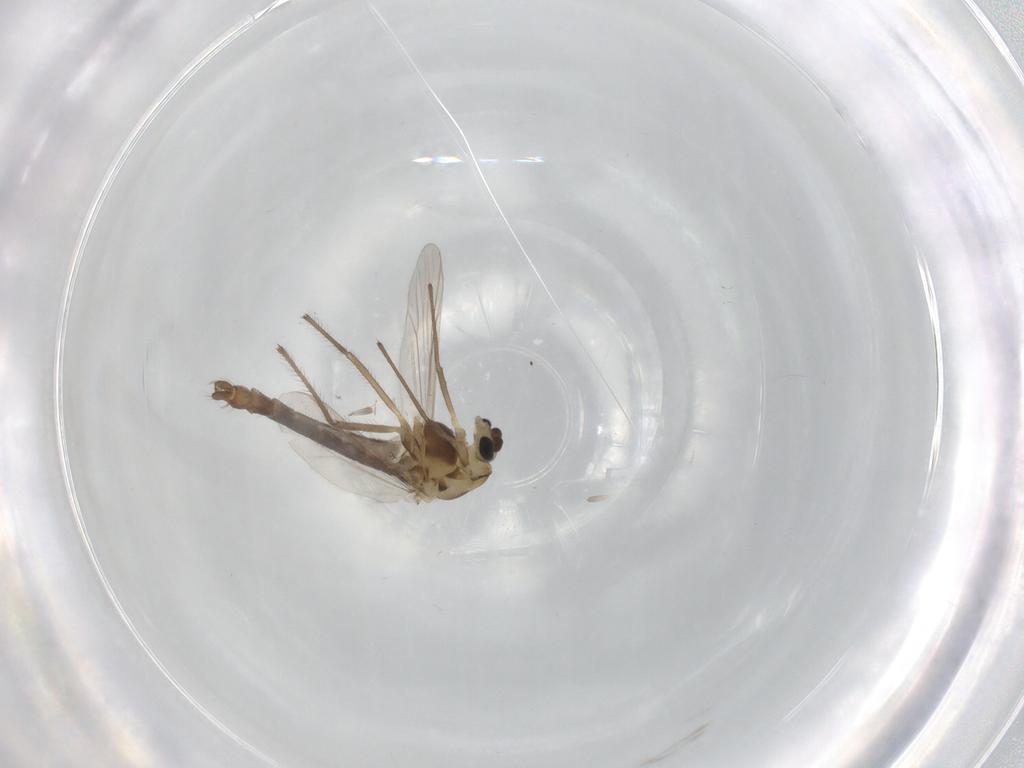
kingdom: Animalia
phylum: Arthropoda
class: Insecta
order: Diptera
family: Chironomidae
